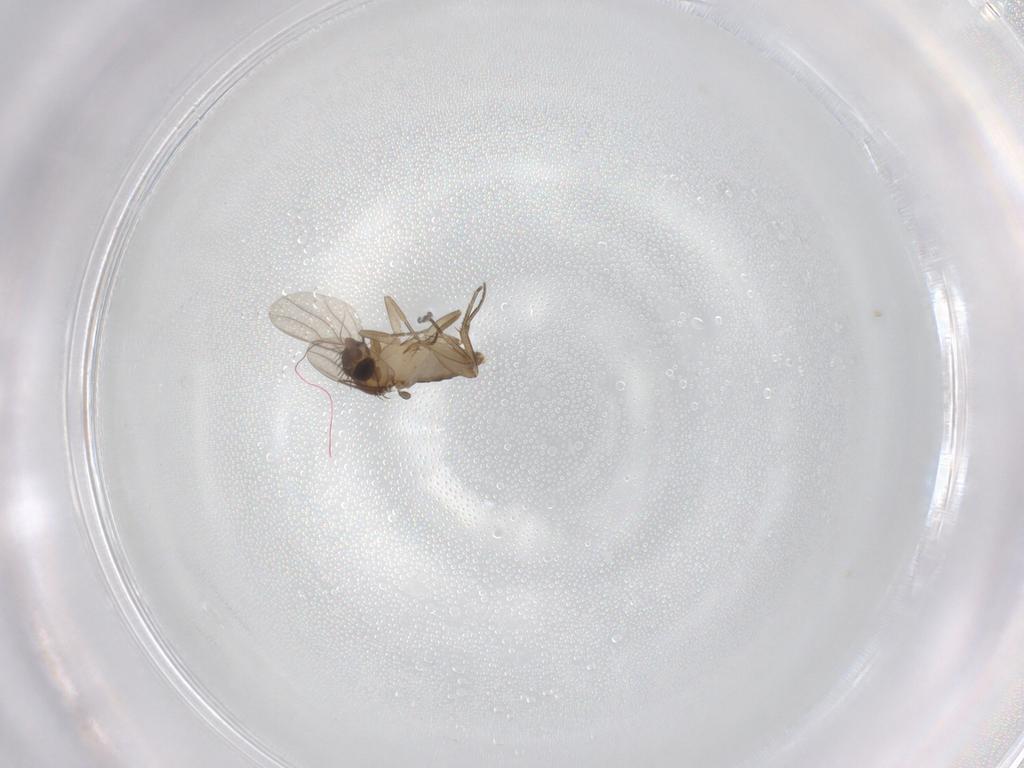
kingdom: Animalia
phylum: Arthropoda
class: Insecta
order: Diptera
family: Phoridae
